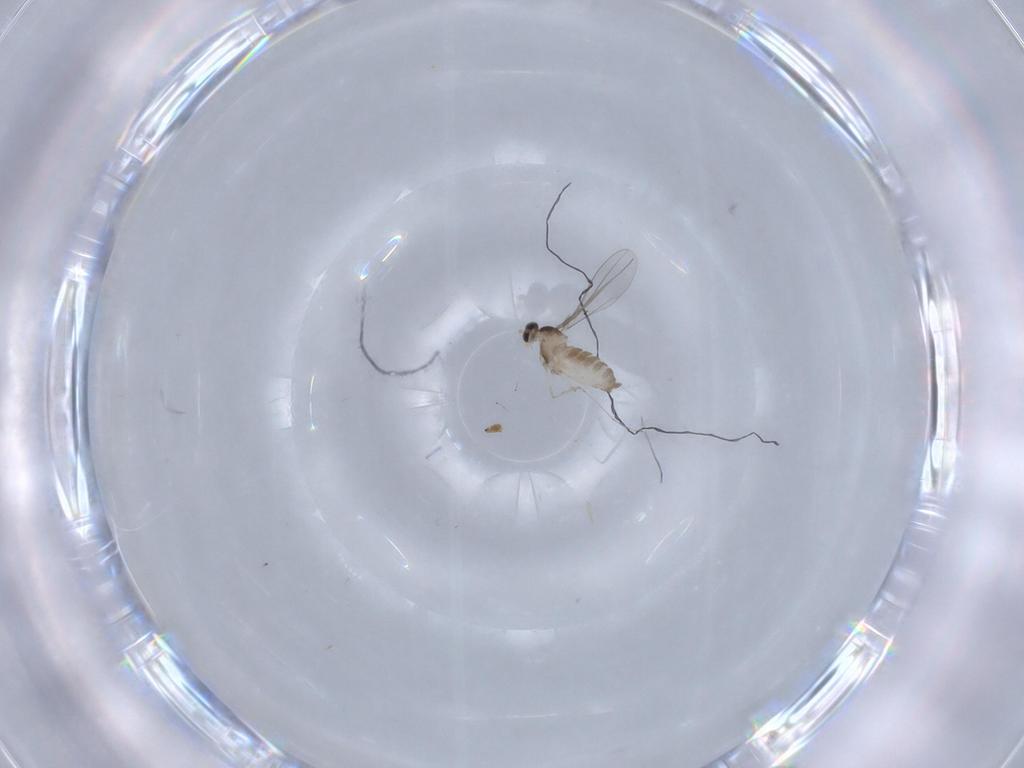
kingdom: Animalia
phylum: Arthropoda
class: Insecta
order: Diptera
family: Cecidomyiidae
